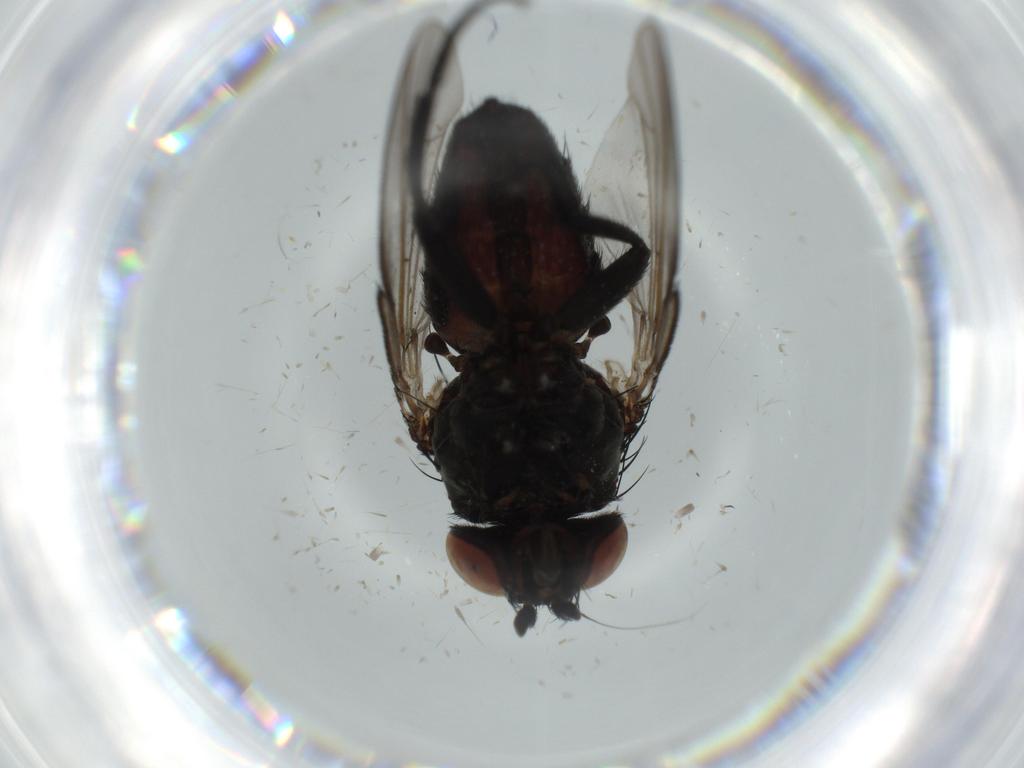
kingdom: Animalia
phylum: Arthropoda
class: Insecta
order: Diptera
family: Milichiidae
